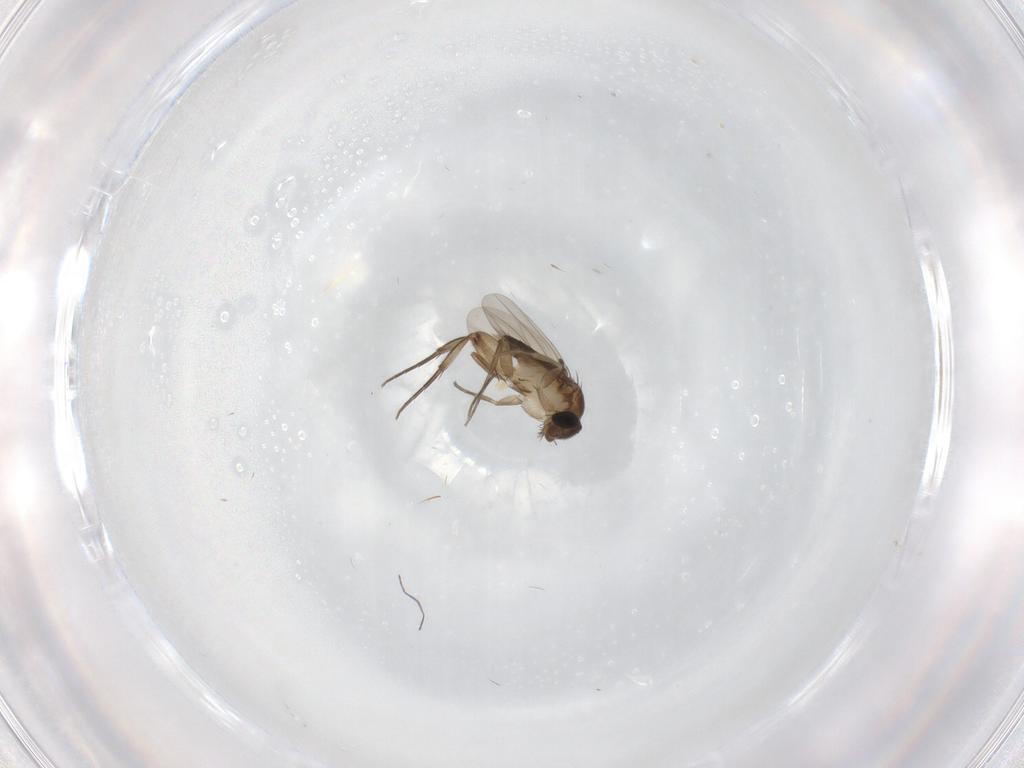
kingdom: Animalia
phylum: Arthropoda
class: Insecta
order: Diptera
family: Phoridae
